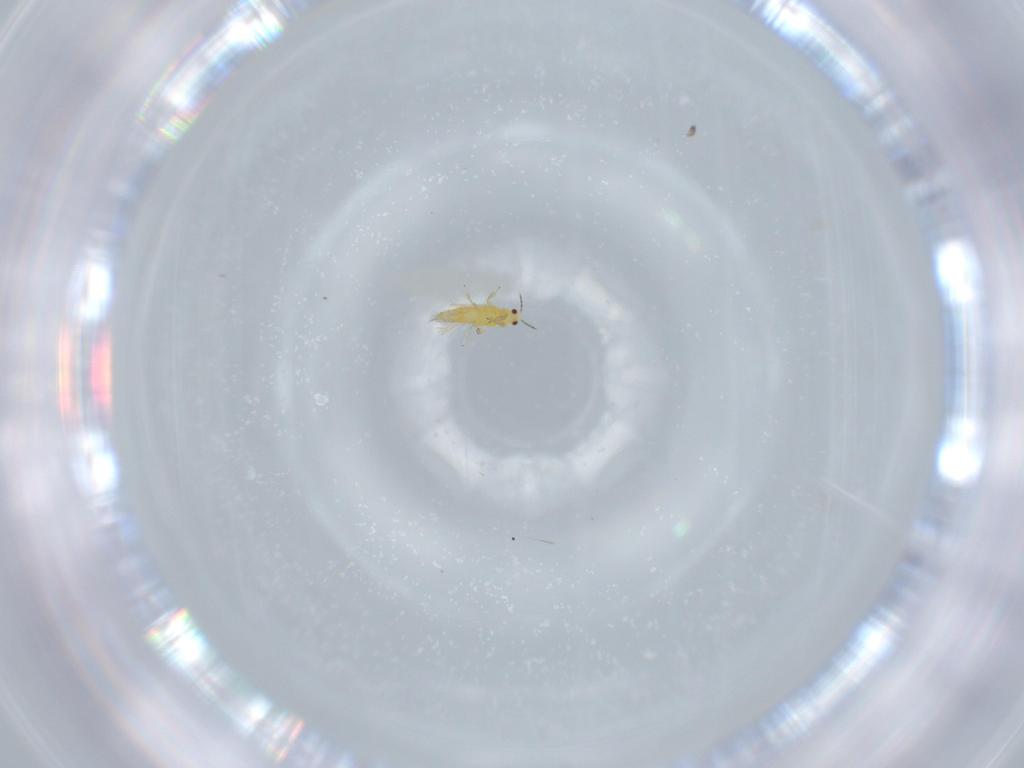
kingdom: Animalia
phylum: Arthropoda
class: Insecta
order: Thysanoptera
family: Thripidae
